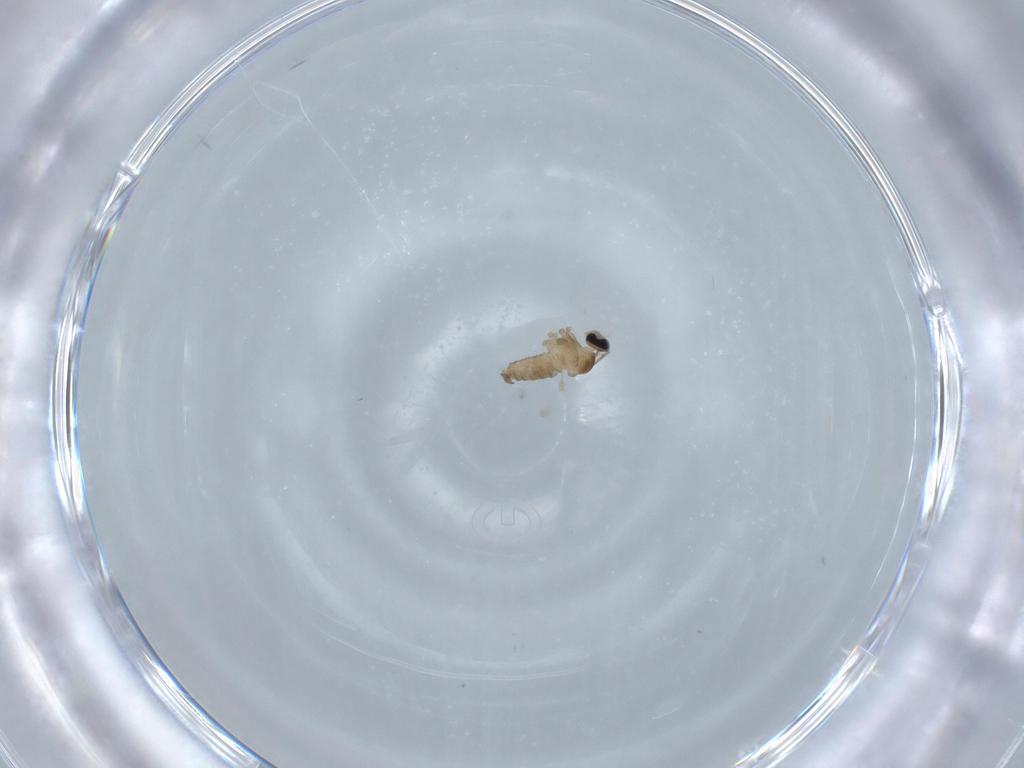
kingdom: Animalia
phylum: Arthropoda
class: Insecta
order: Diptera
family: Cecidomyiidae
